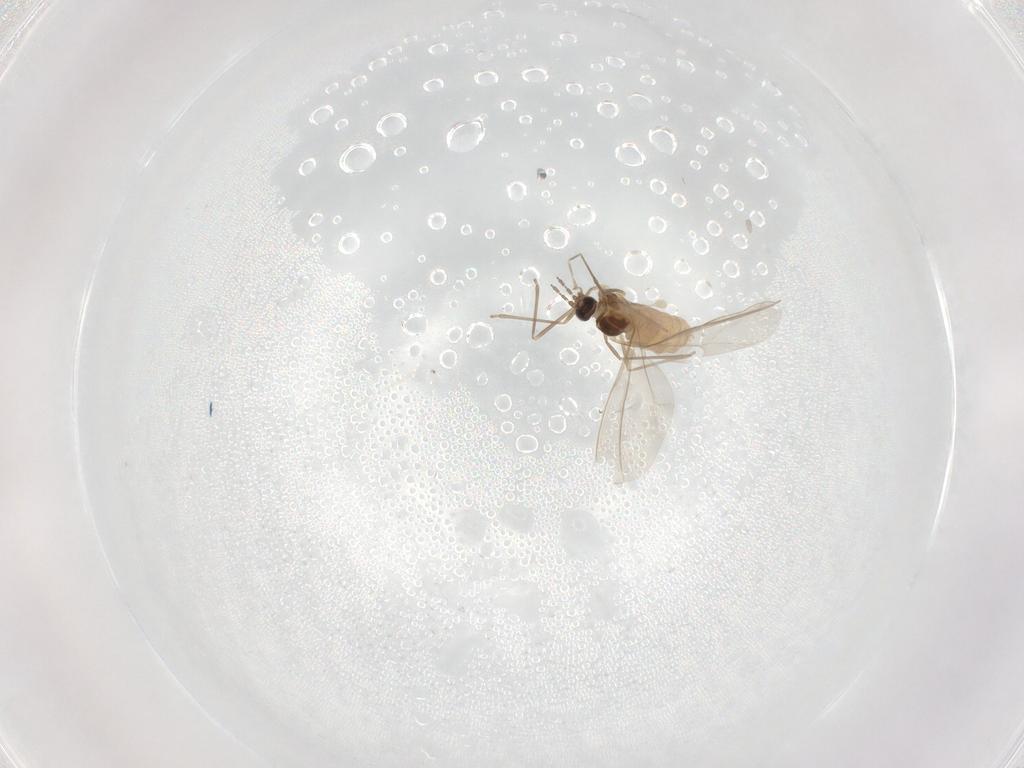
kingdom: Animalia
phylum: Arthropoda
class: Insecta
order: Diptera
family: Cecidomyiidae
